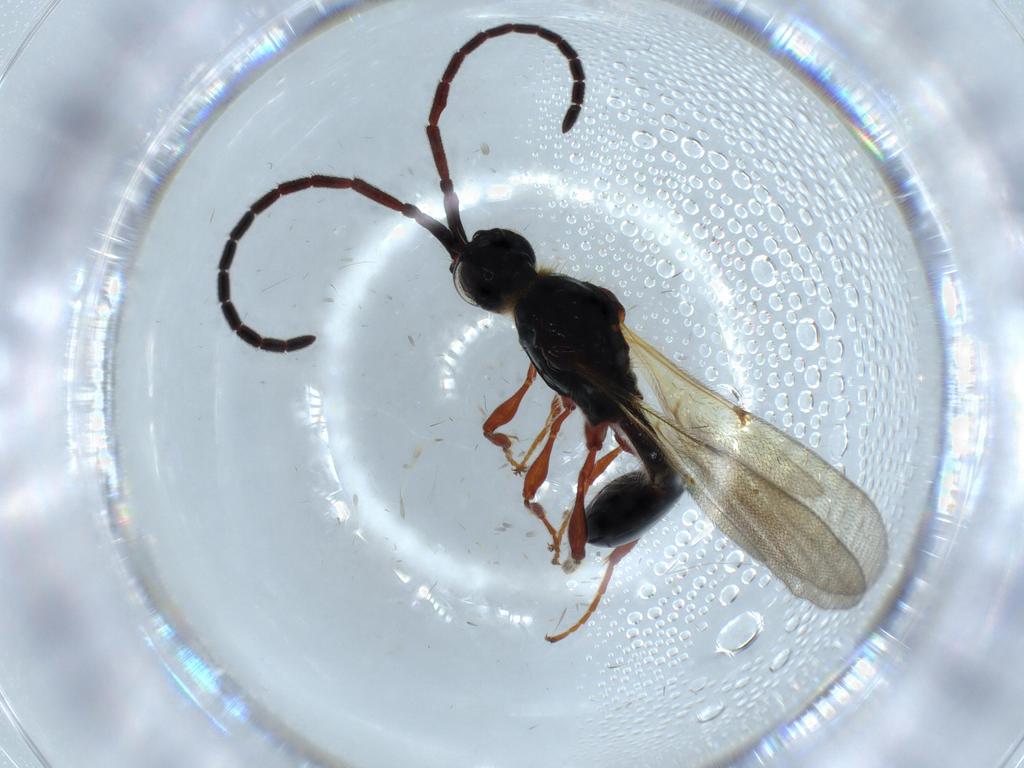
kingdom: Animalia
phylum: Arthropoda
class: Insecta
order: Hymenoptera
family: Diapriidae
